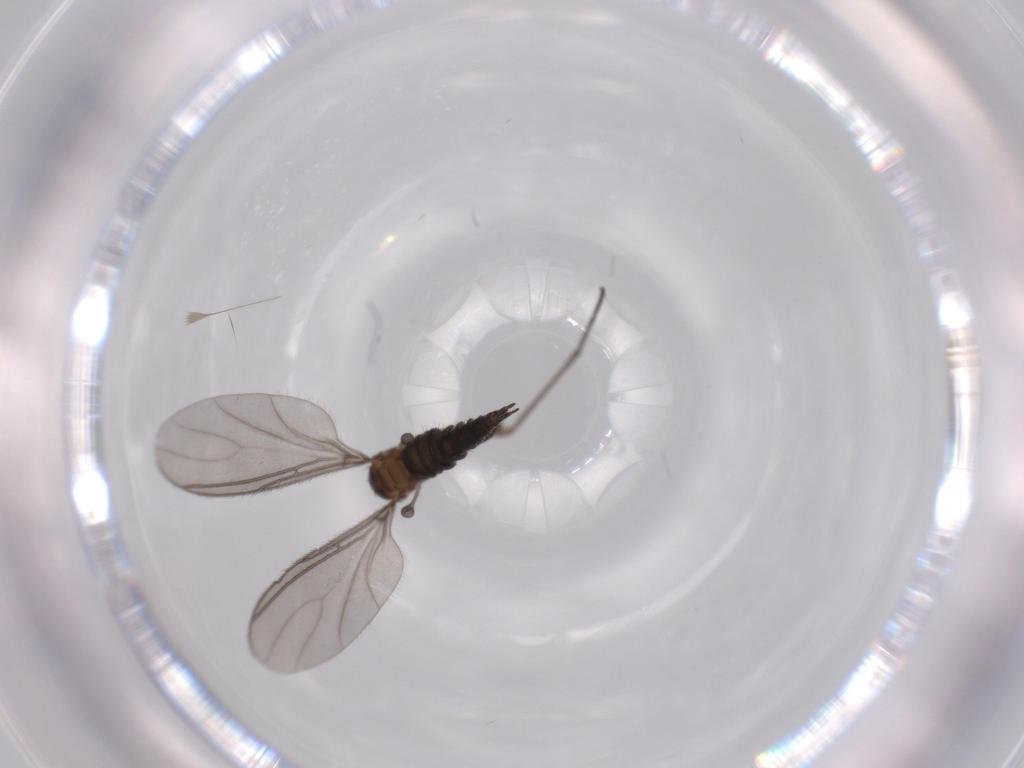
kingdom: Animalia
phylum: Arthropoda
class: Insecta
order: Diptera
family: Sciaridae
